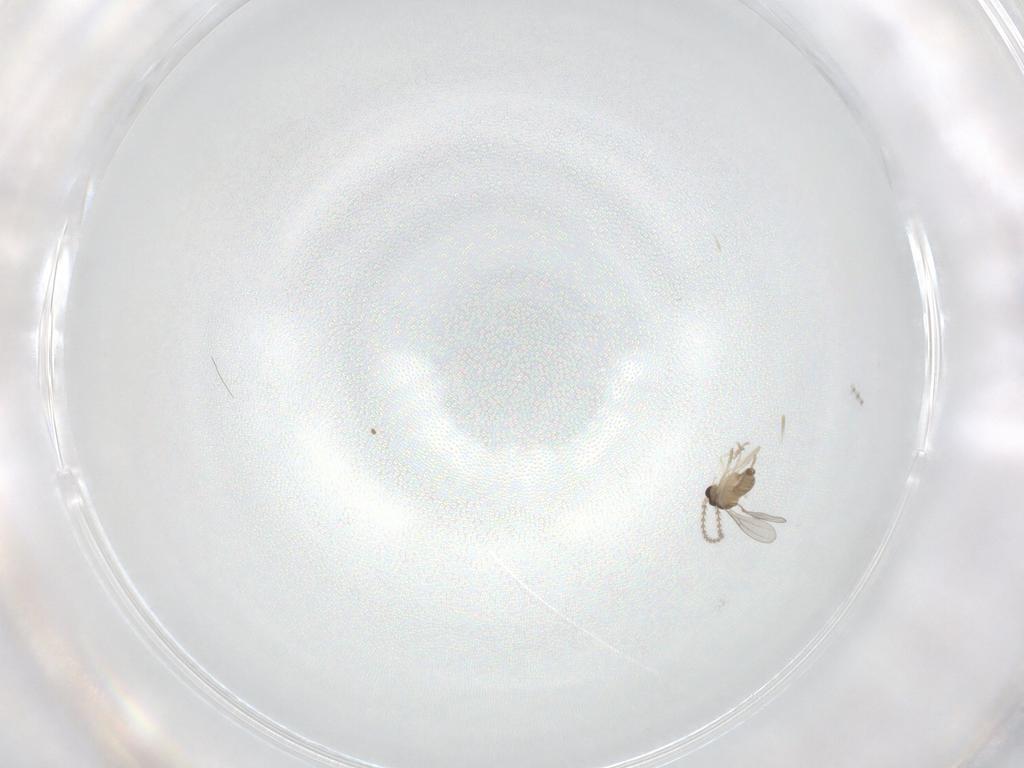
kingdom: Animalia
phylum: Arthropoda
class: Insecta
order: Diptera
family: Cecidomyiidae
